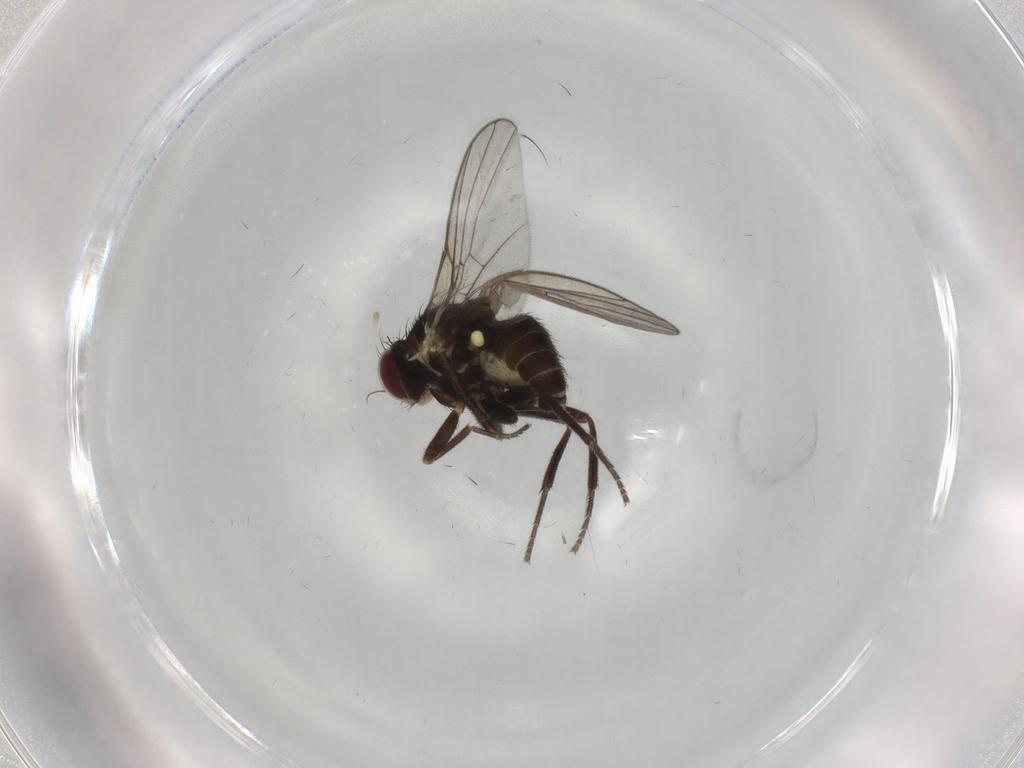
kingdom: Animalia
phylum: Arthropoda
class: Insecta
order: Diptera
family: Agromyzidae
